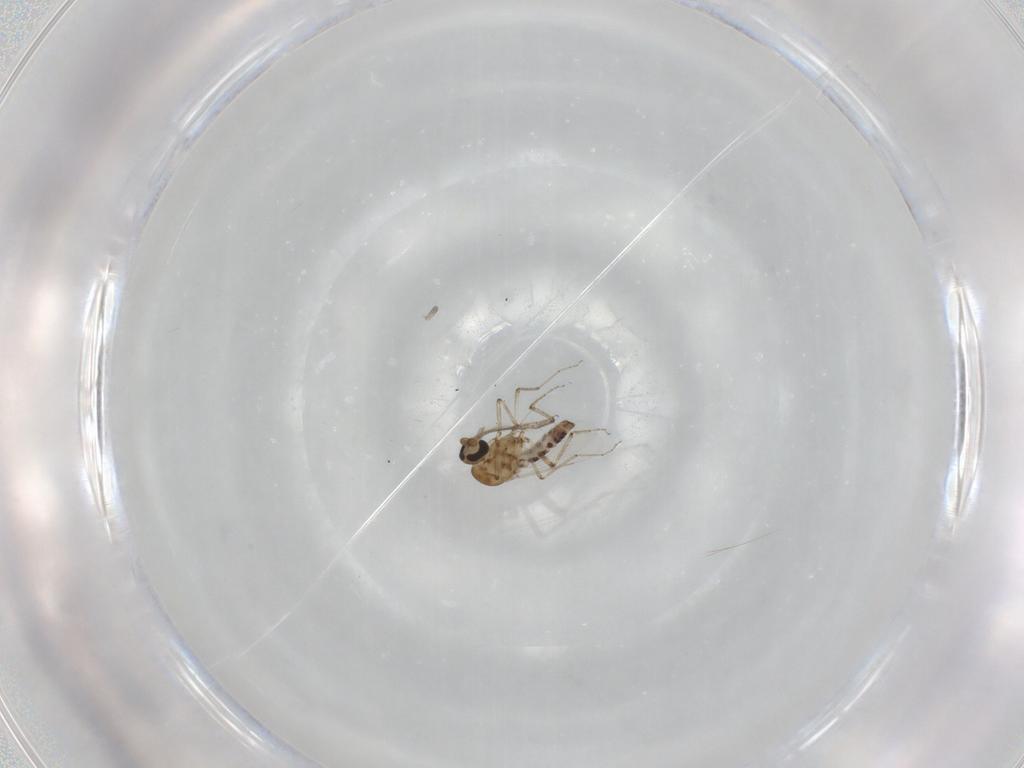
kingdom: Animalia
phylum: Arthropoda
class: Insecta
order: Diptera
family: Ceratopogonidae
